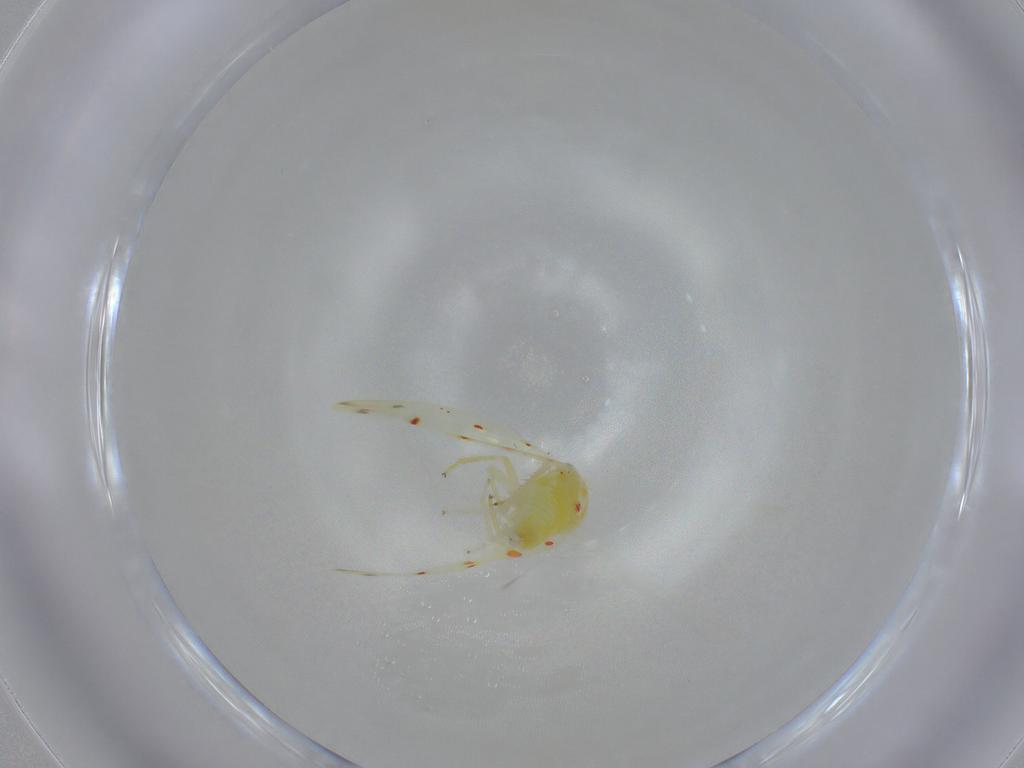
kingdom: Animalia
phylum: Arthropoda
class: Insecta
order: Hemiptera
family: Cicadellidae
